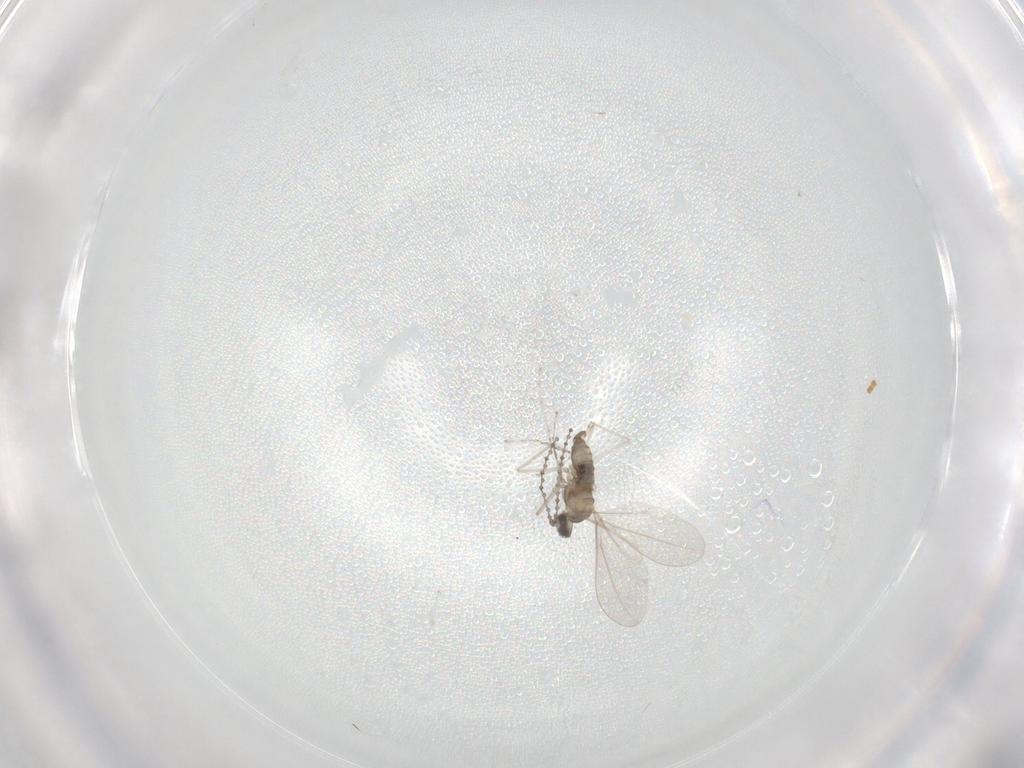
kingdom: Animalia
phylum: Arthropoda
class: Insecta
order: Diptera
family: Cecidomyiidae
